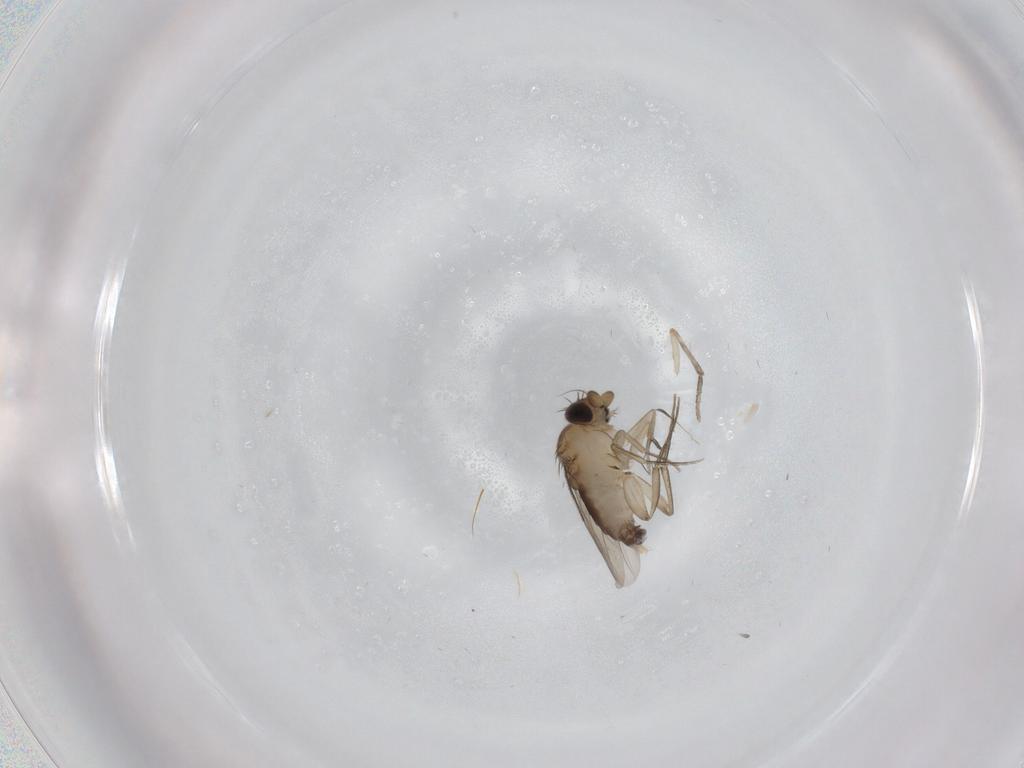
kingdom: Animalia
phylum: Arthropoda
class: Insecta
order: Diptera
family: Phoridae
